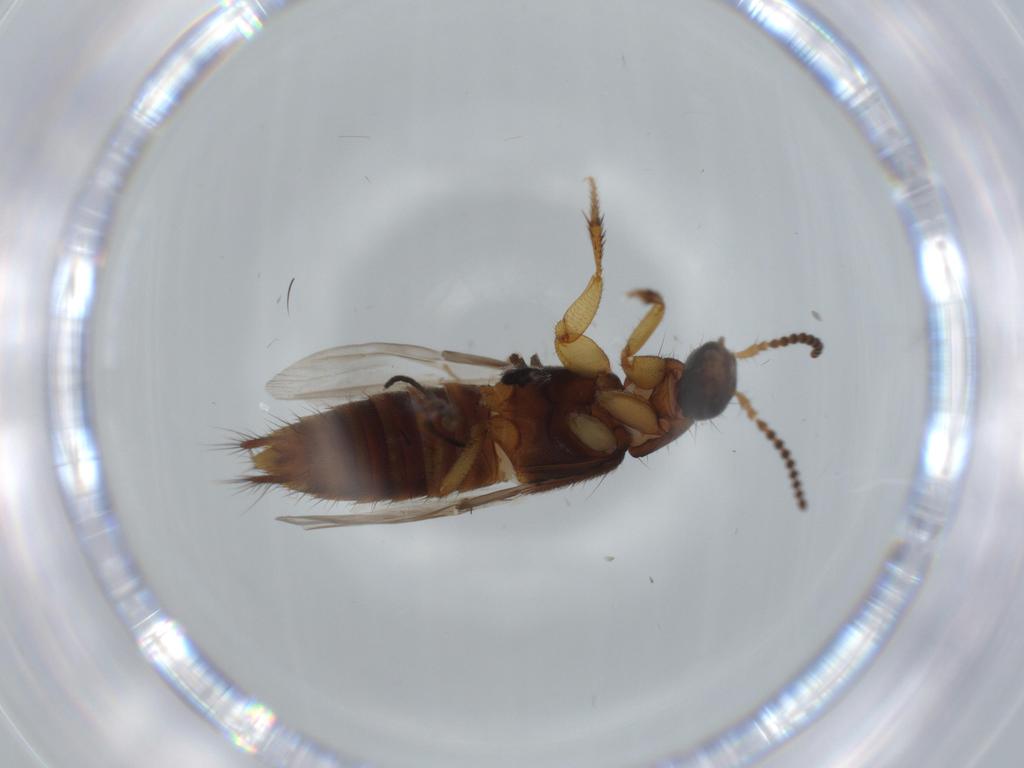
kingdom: Animalia
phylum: Arthropoda
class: Insecta
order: Coleoptera
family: Staphylinidae
